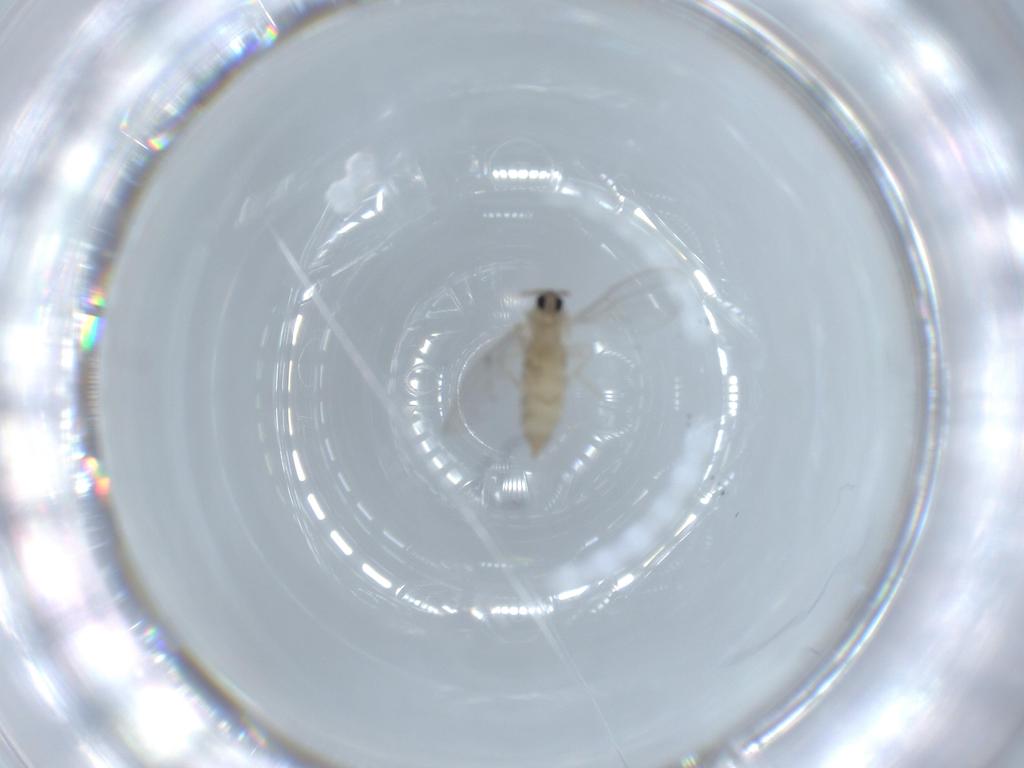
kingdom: Animalia
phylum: Arthropoda
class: Insecta
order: Diptera
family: Cecidomyiidae
